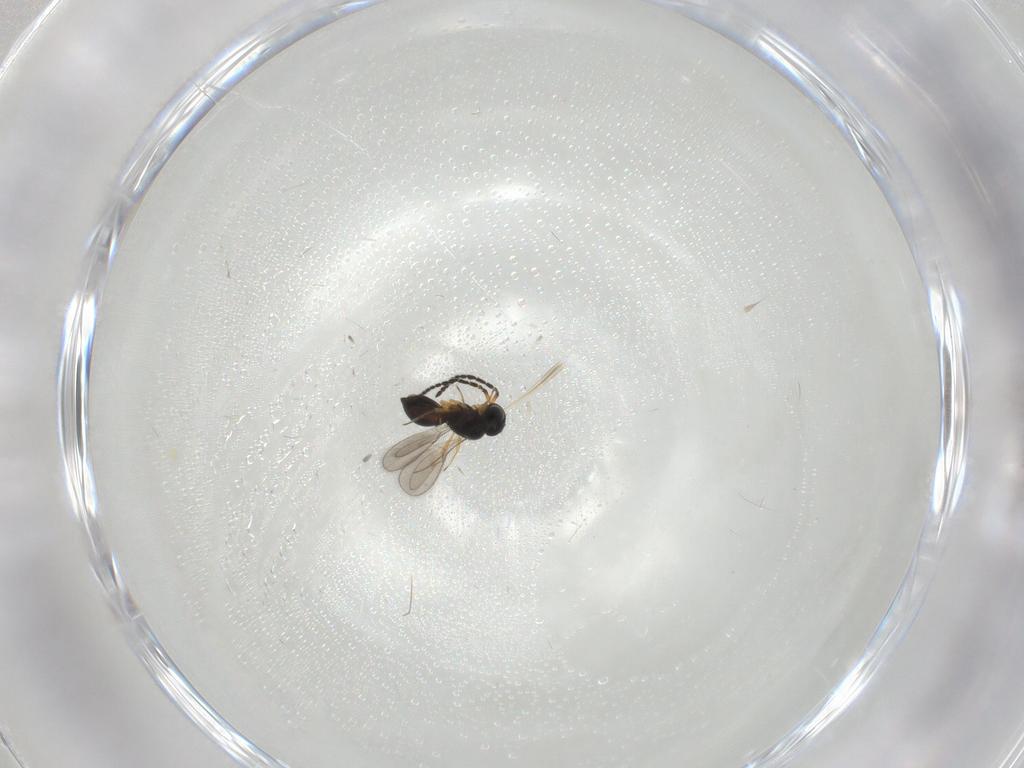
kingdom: Animalia
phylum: Arthropoda
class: Insecta
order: Hymenoptera
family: Scelionidae
